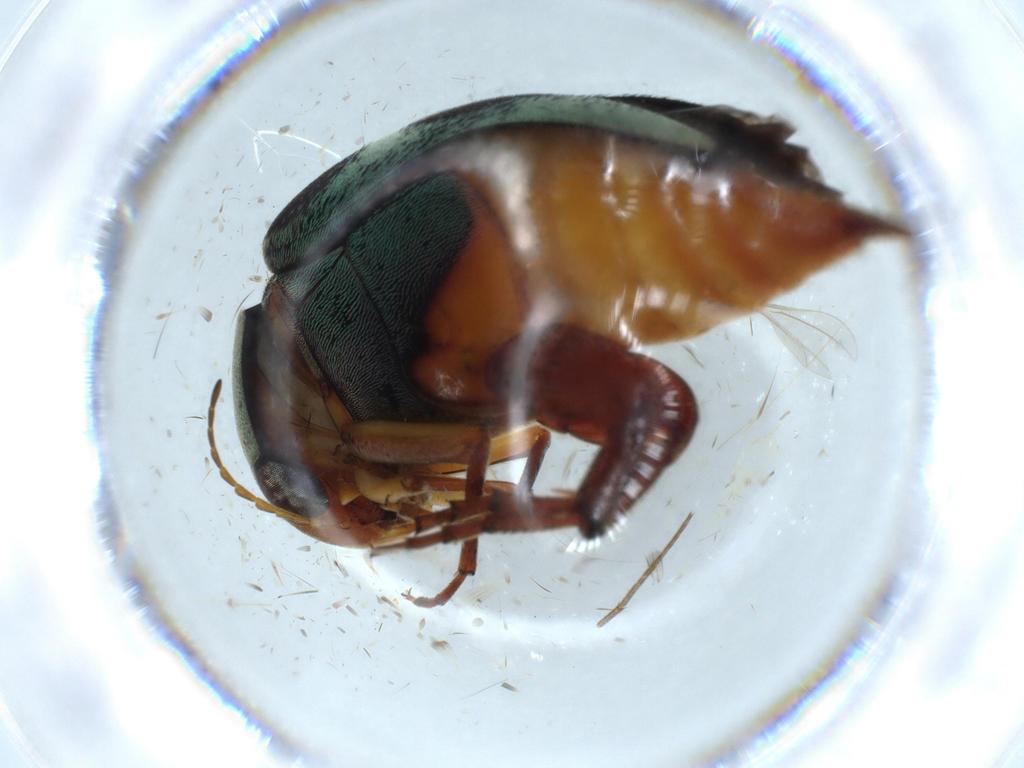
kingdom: Animalia
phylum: Arthropoda
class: Insecta
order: Coleoptera
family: Mordellidae
